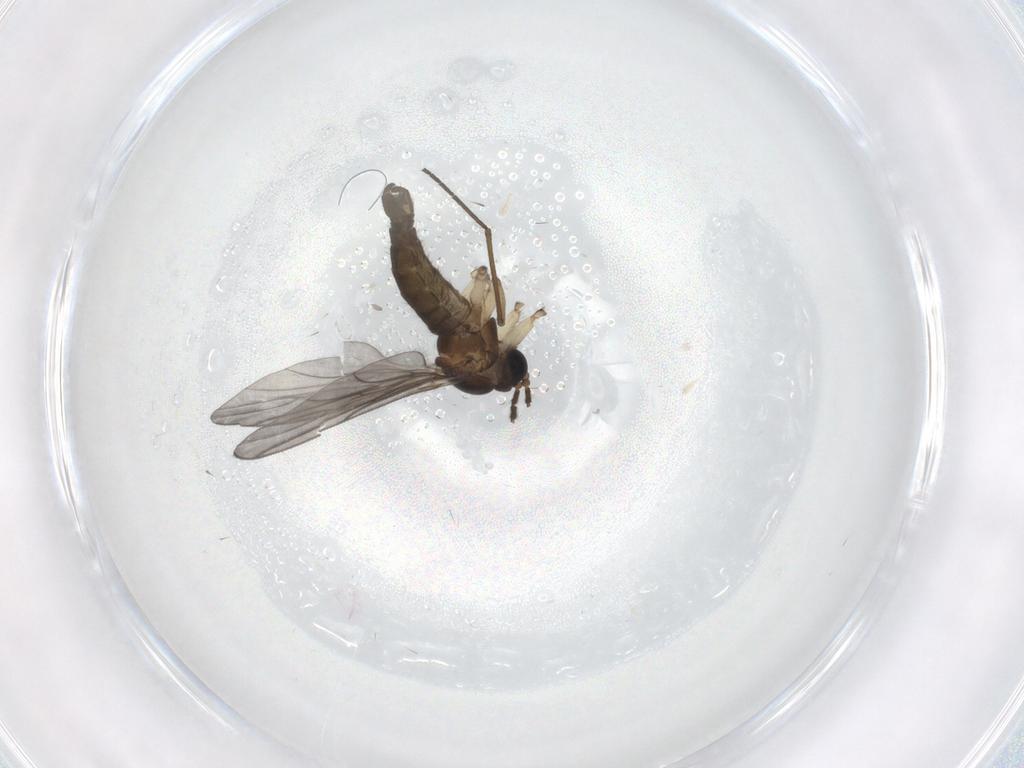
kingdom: Animalia
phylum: Arthropoda
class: Insecta
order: Diptera
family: Sciaridae
